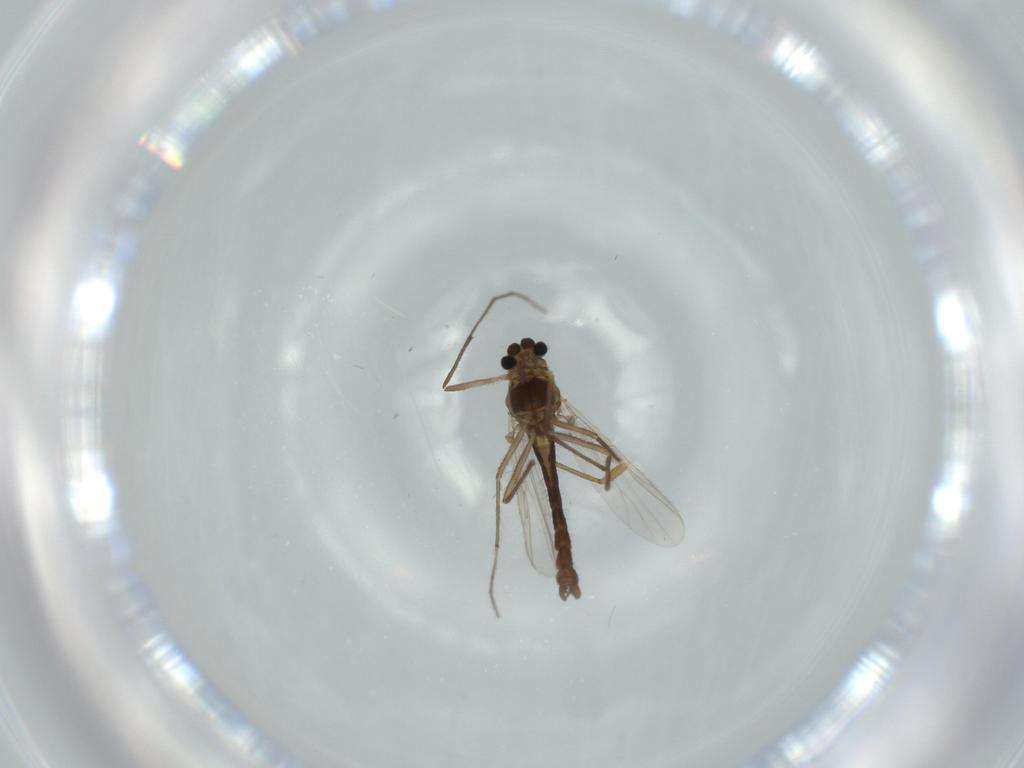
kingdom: Animalia
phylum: Arthropoda
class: Insecta
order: Diptera
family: Chironomidae
